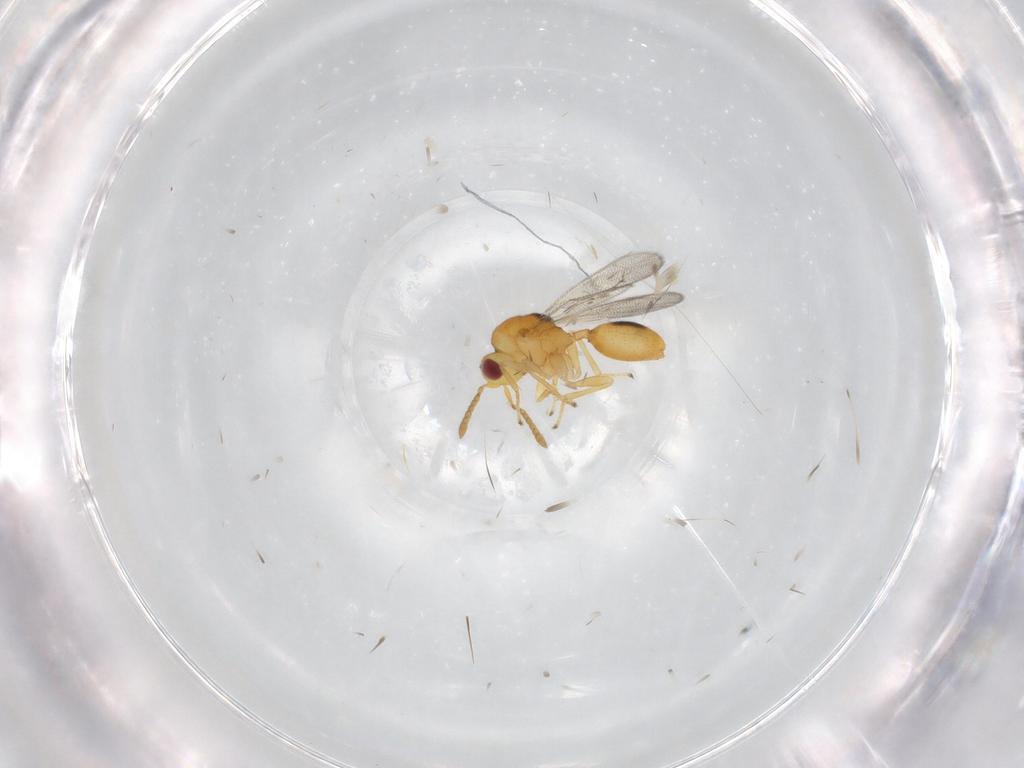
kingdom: Animalia
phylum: Arthropoda
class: Insecta
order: Hymenoptera
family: Eurytomidae
